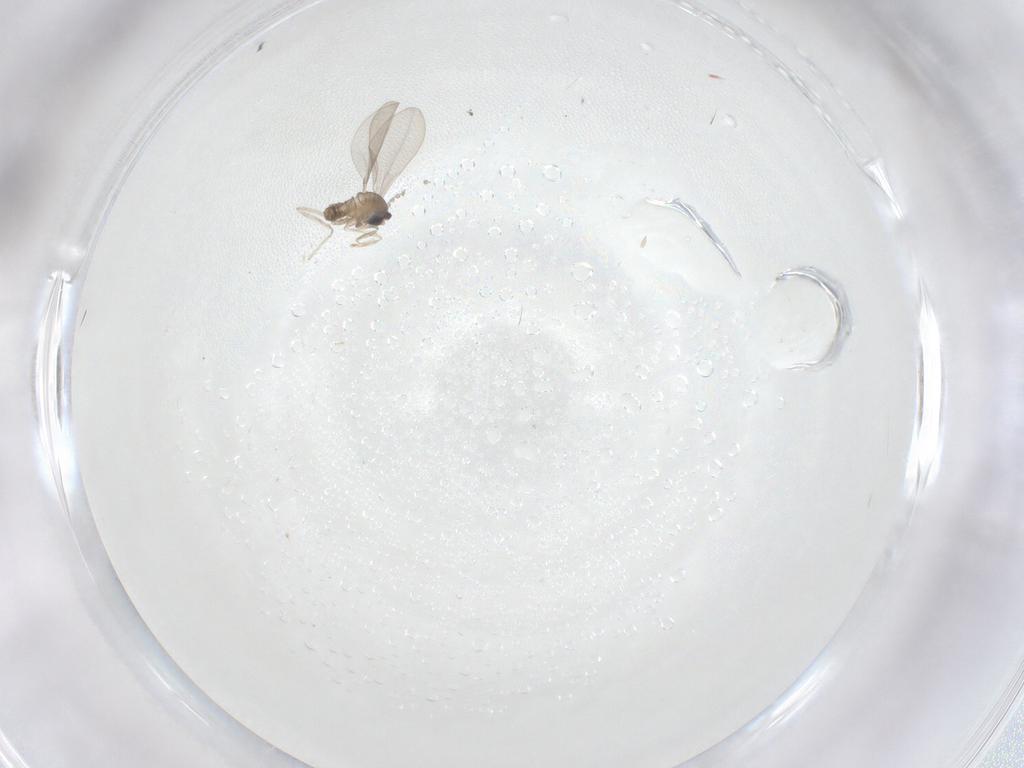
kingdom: Animalia
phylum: Arthropoda
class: Insecta
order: Diptera
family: Cecidomyiidae
